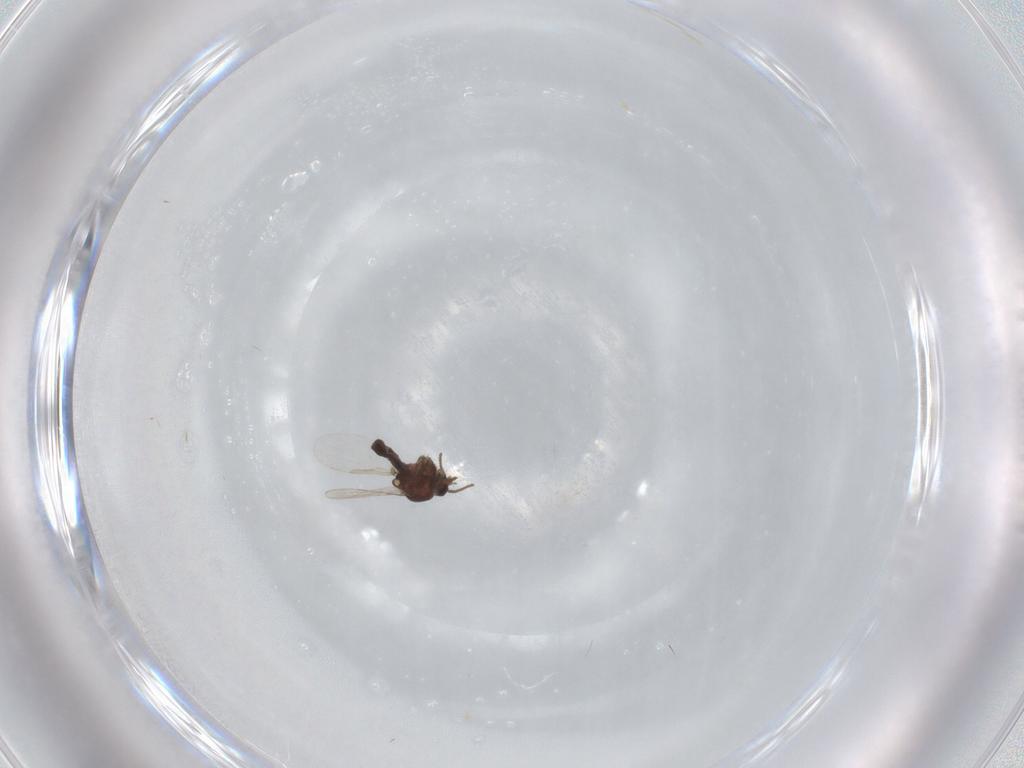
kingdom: Animalia
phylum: Arthropoda
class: Insecta
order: Diptera
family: Ceratopogonidae
